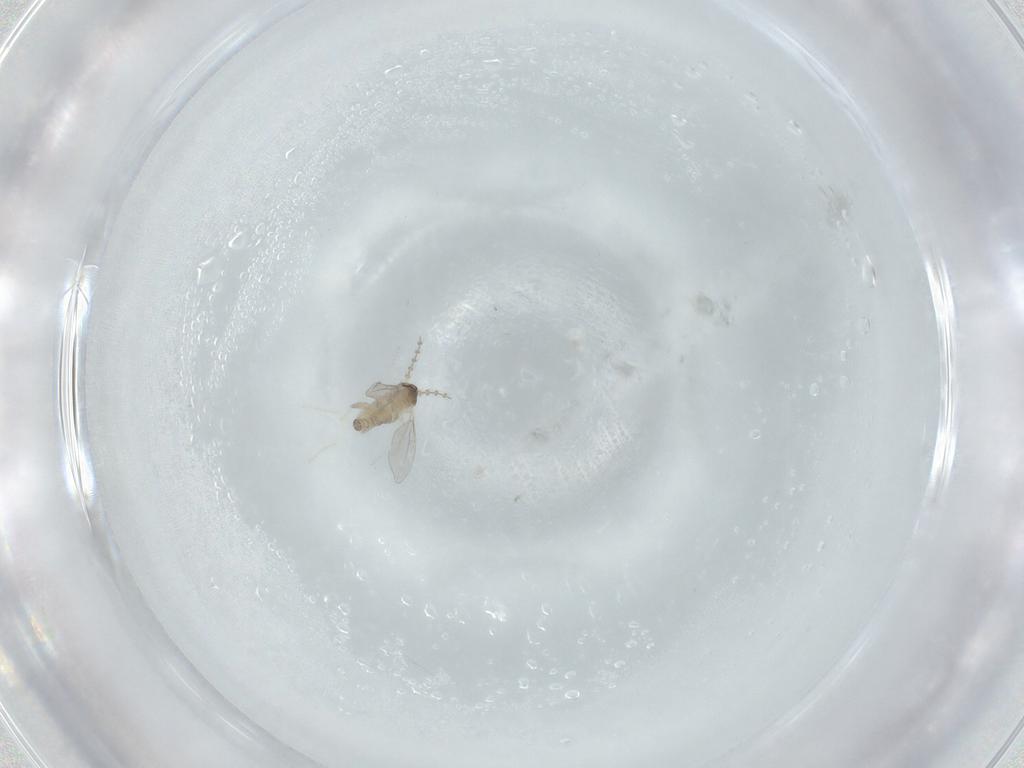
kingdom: Animalia
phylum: Arthropoda
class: Insecta
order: Diptera
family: Cecidomyiidae
